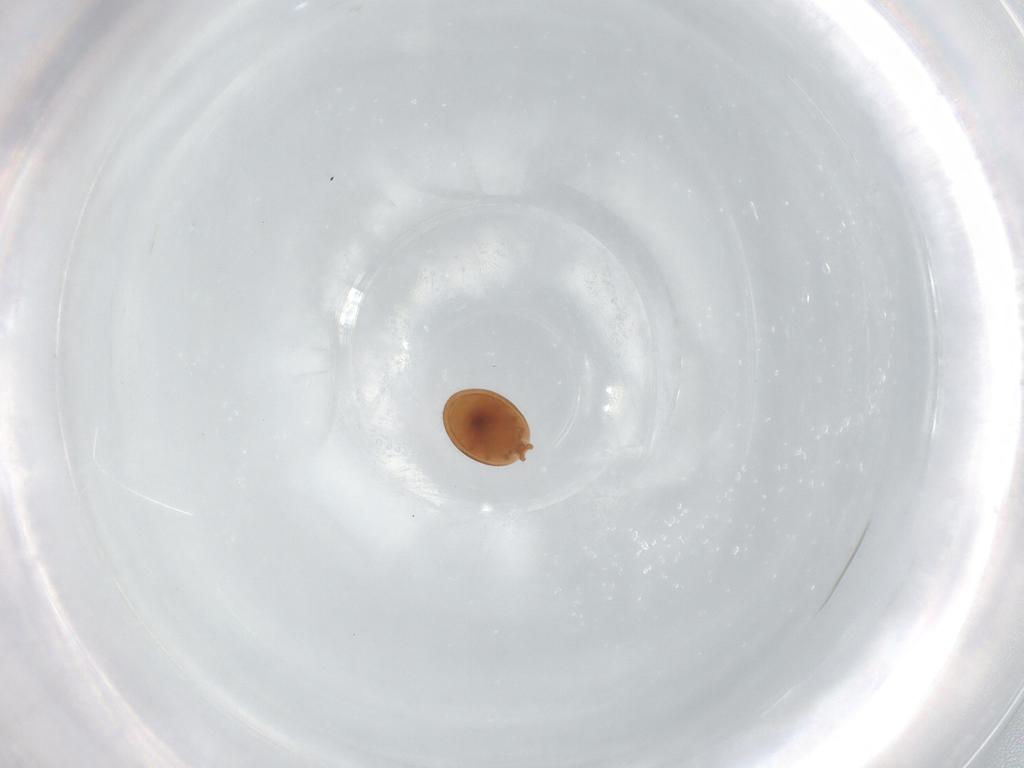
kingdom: Animalia
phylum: Arthropoda
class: Arachnida
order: Mesostigmata
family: Trematuridae
